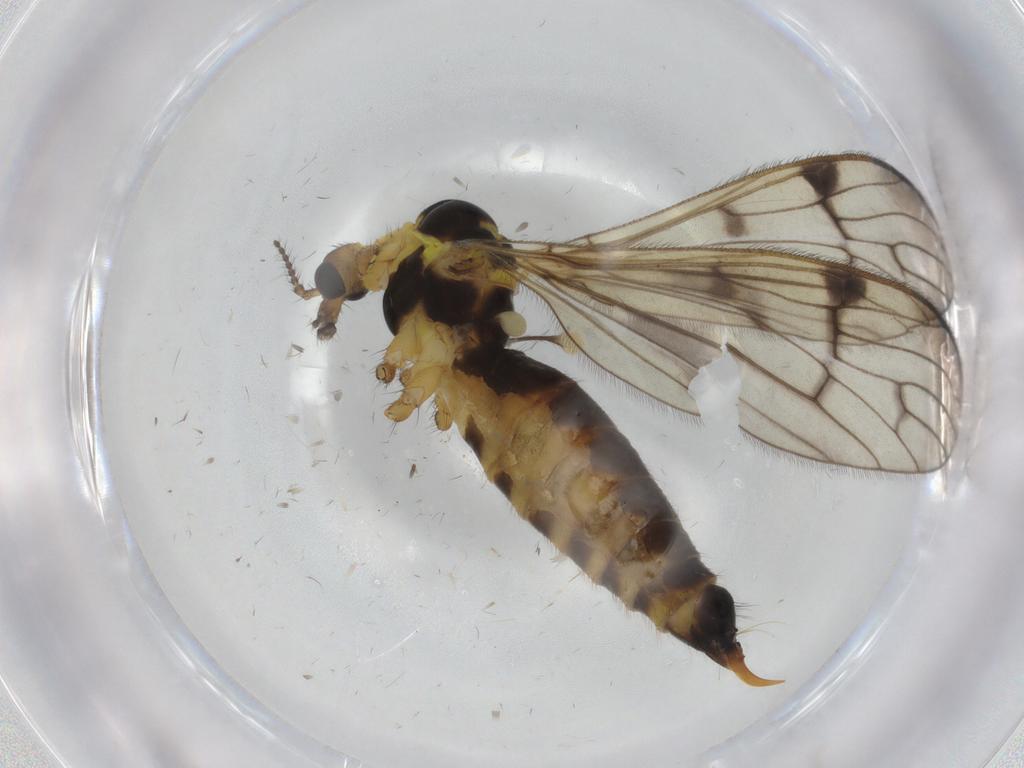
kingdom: Animalia
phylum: Arthropoda
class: Insecta
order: Diptera
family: Limoniidae
